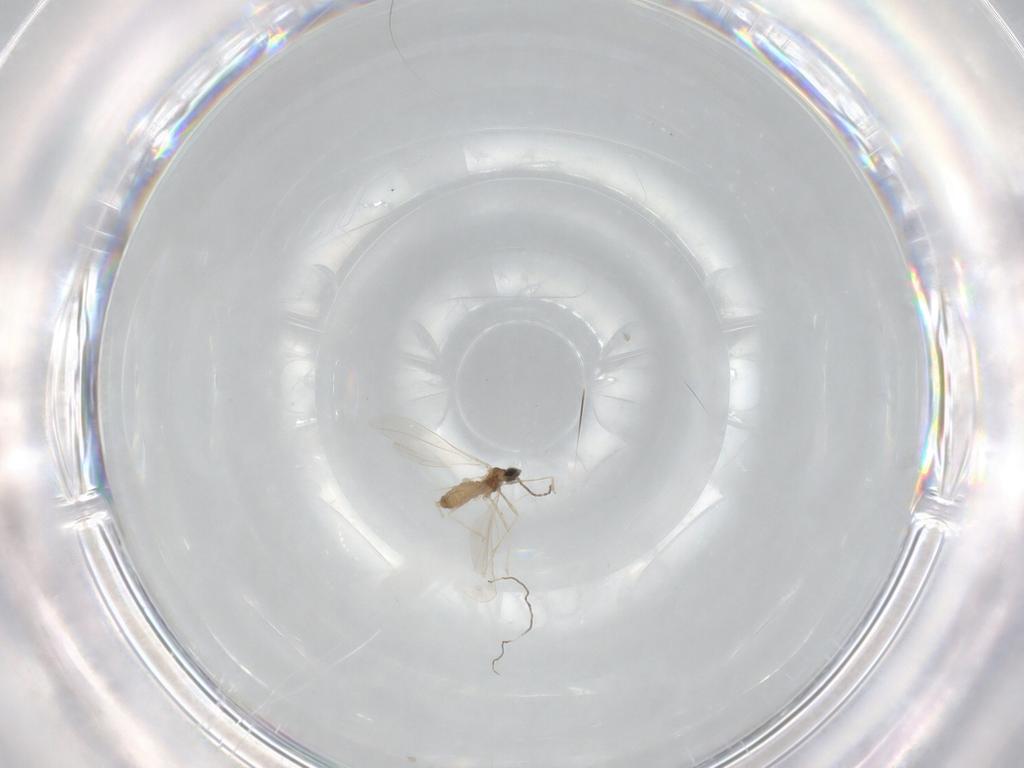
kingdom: Animalia
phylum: Arthropoda
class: Insecta
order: Diptera
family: Cecidomyiidae
